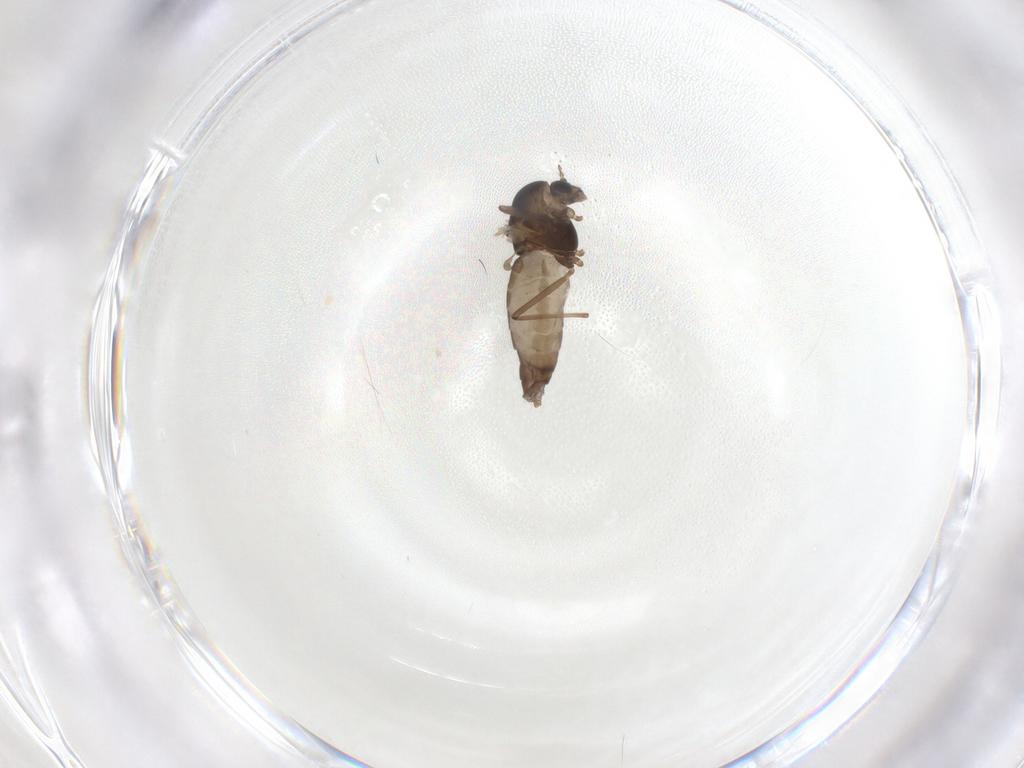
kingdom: Animalia
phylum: Arthropoda
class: Insecta
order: Diptera
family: Chironomidae
